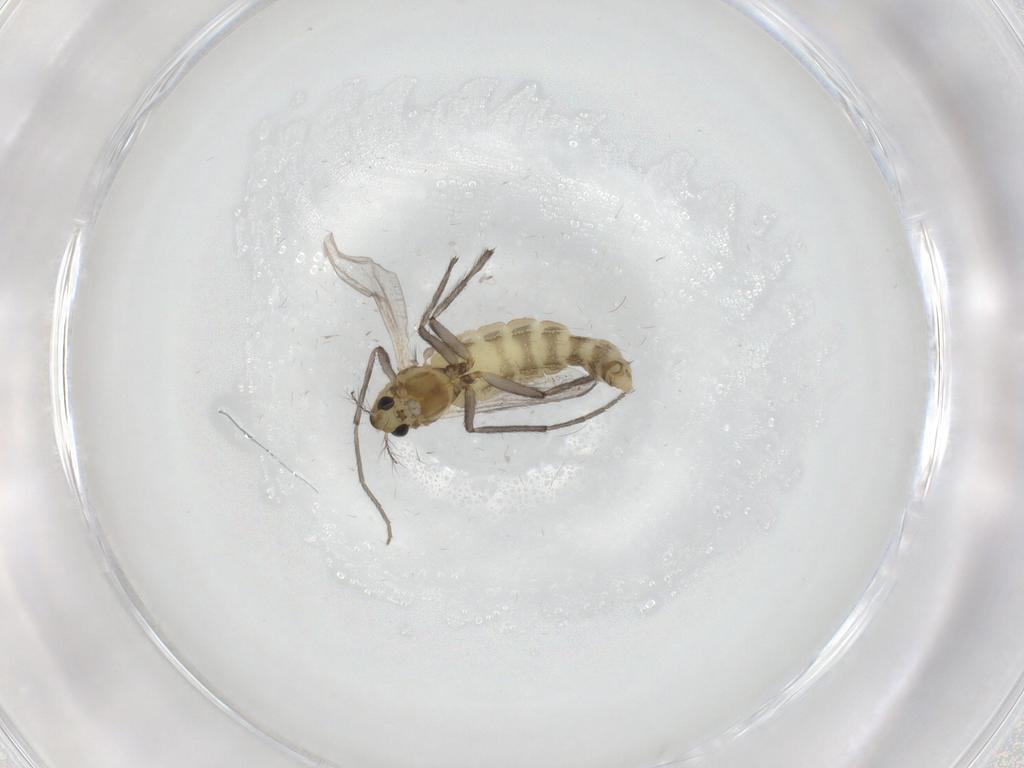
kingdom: Animalia
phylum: Arthropoda
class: Insecta
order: Diptera
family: Chironomidae
